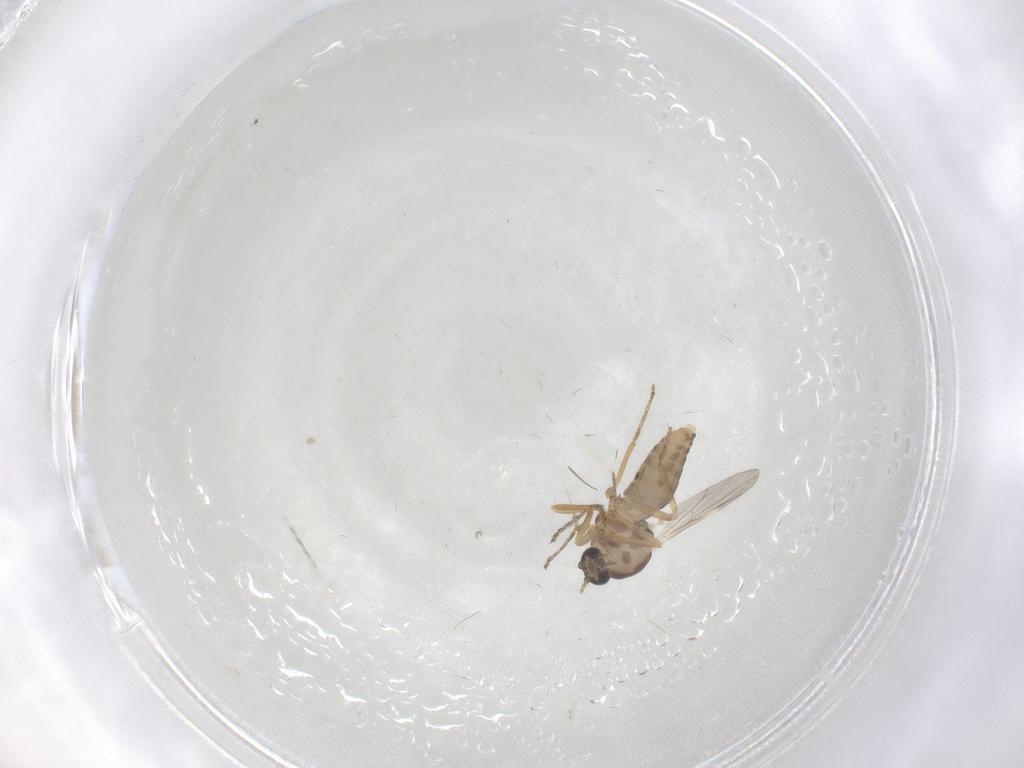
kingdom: Animalia
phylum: Arthropoda
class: Insecta
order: Diptera
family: Ceratopogonidae
